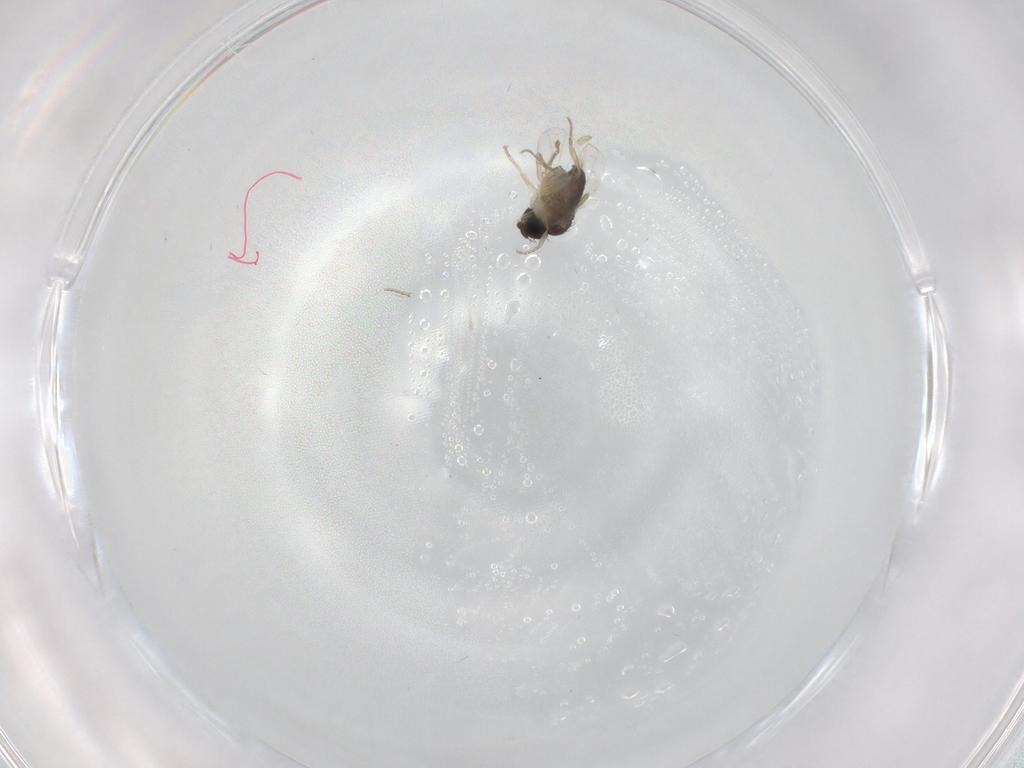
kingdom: Animalia
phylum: Arthropoda
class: Insecta
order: Diptera
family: Phoridae
